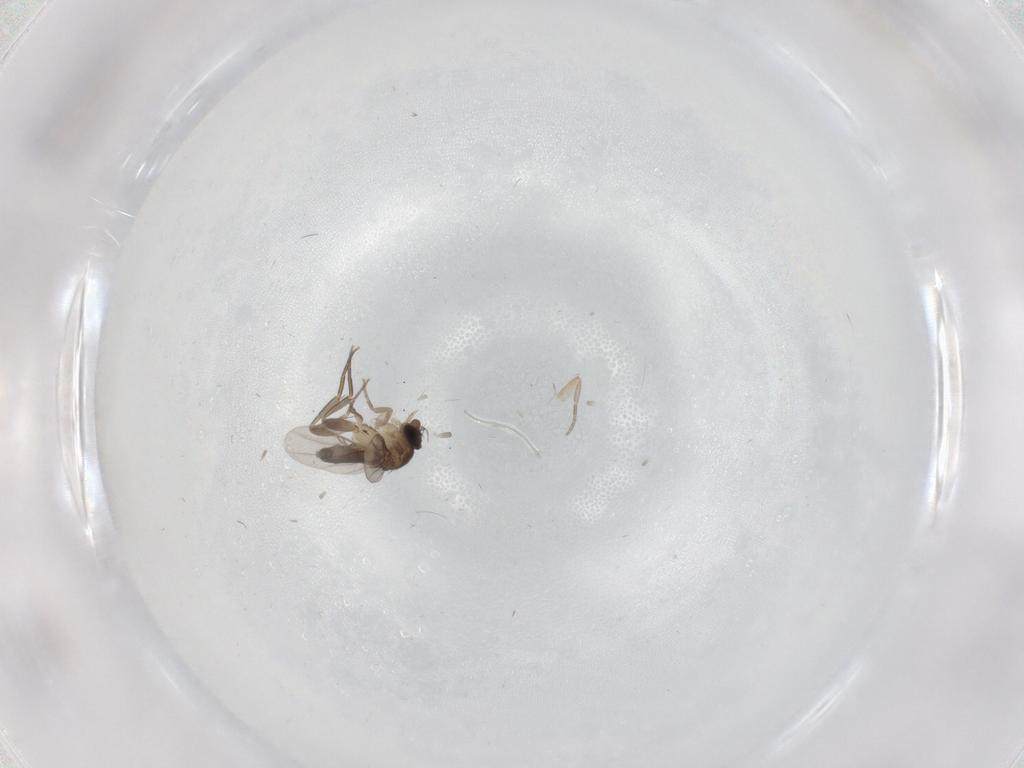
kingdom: Animalia
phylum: Arthropoda
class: Insecta
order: Diptera
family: Phoridae
